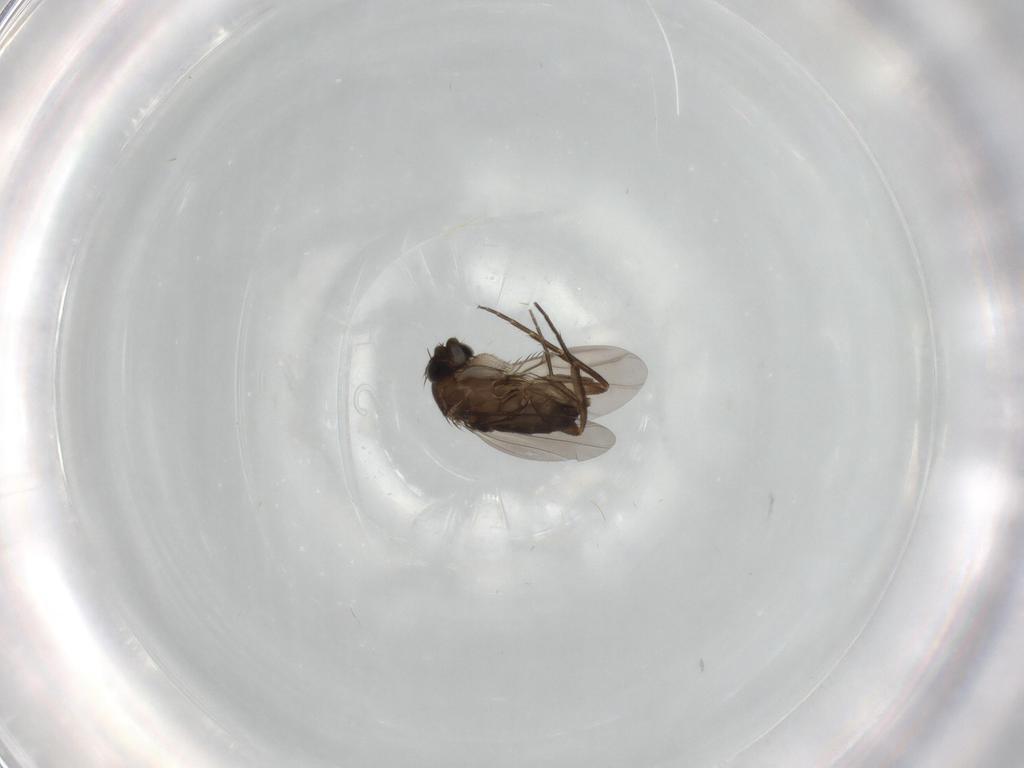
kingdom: Animalia
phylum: Arthropoda
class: Insecta
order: Diptera
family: Phoridae
